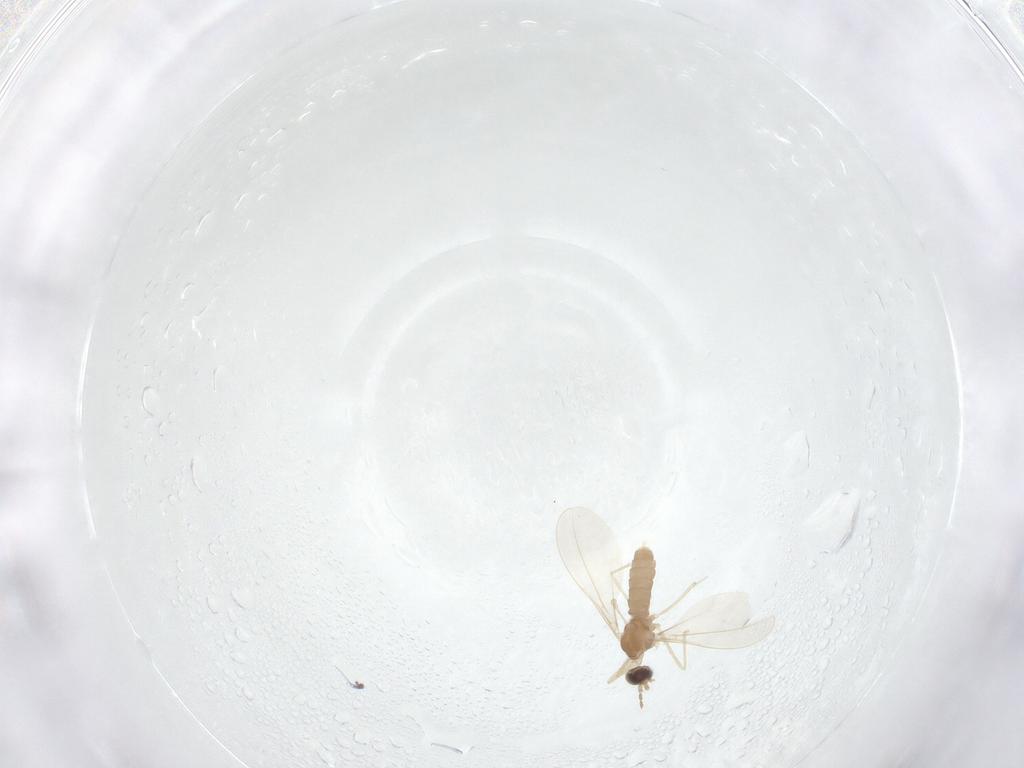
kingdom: Animalia
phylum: Arthropoda
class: Insecta
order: Diptera
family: Cecidomyiidae
